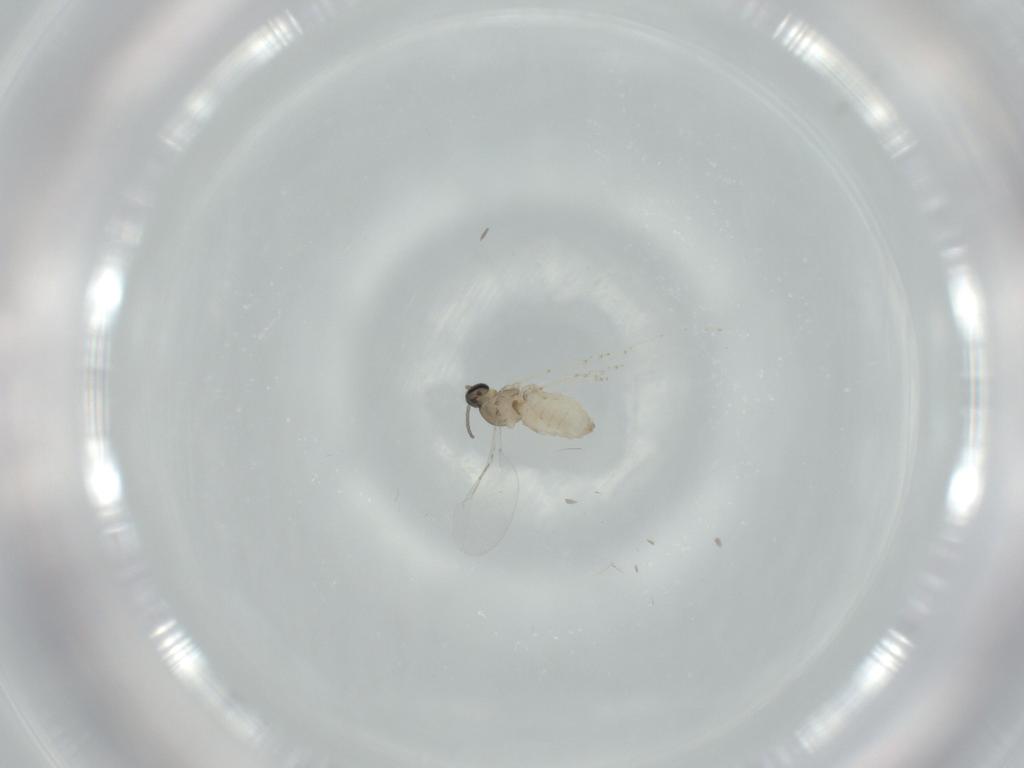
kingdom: Animalia
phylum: Arthropoda
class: Insecta
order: Diptera
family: Cecidomyiidae
